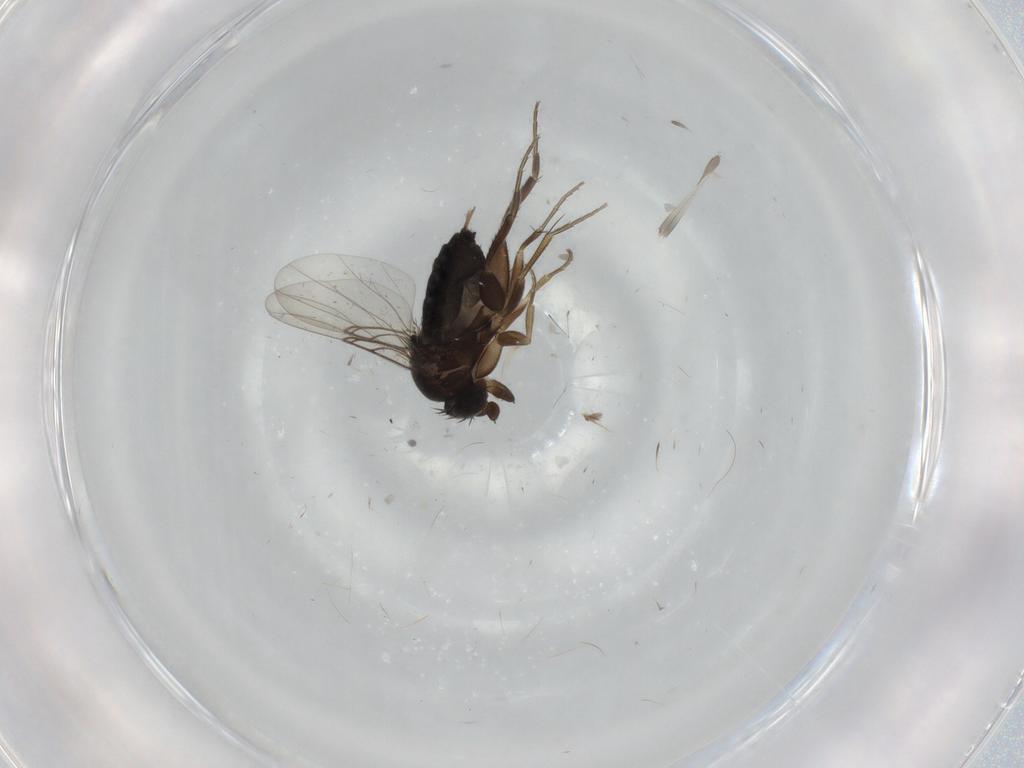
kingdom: Animalia
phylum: Arthropoda
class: Insecta
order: Diptera
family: Phoridae
